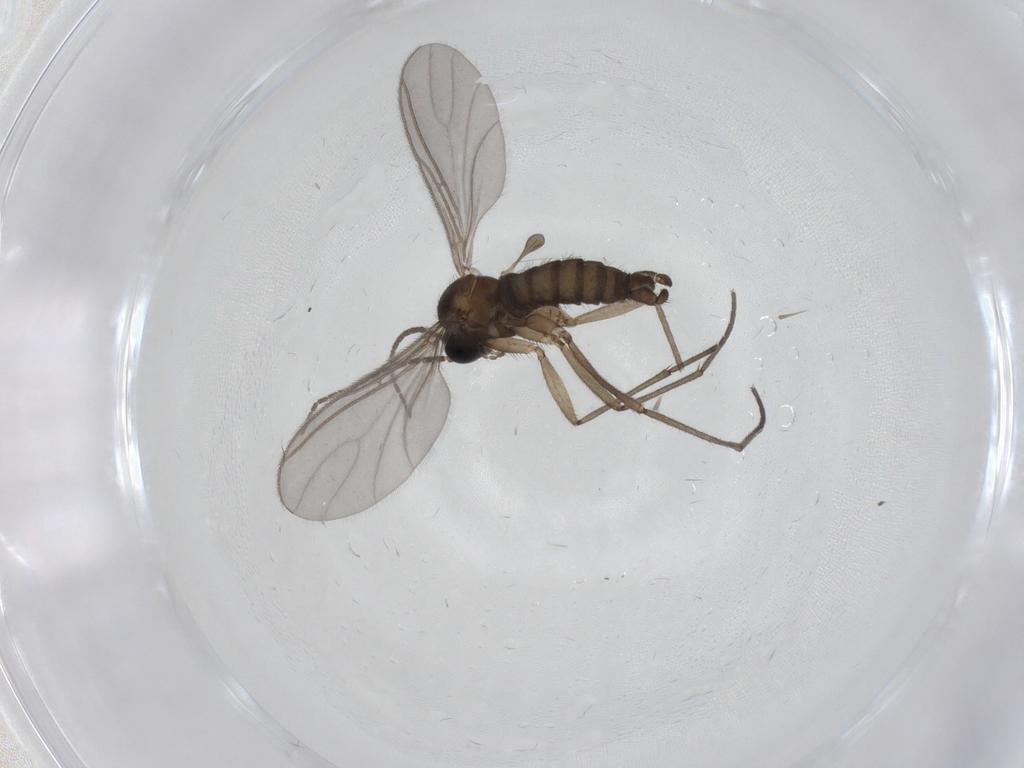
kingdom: Animalia
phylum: Arthropoda
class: Insecta
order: Diptera
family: Sciaridae
